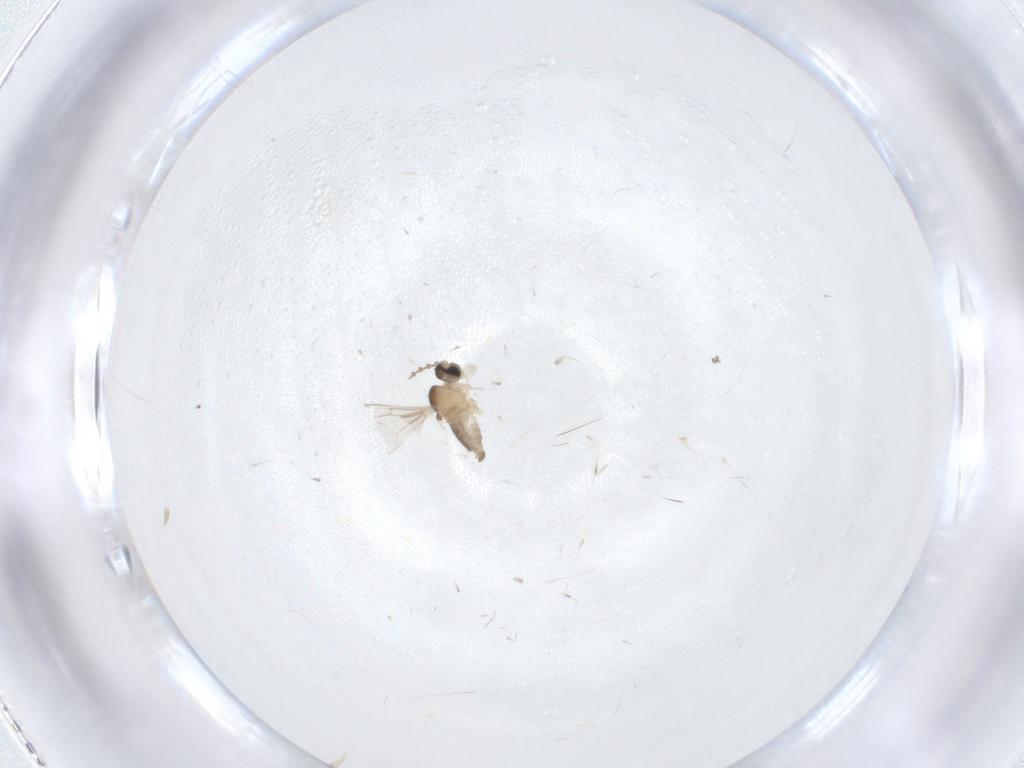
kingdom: Animalia
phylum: Arthropoda
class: Insecta
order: Diptera
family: Cecidomyiidae
